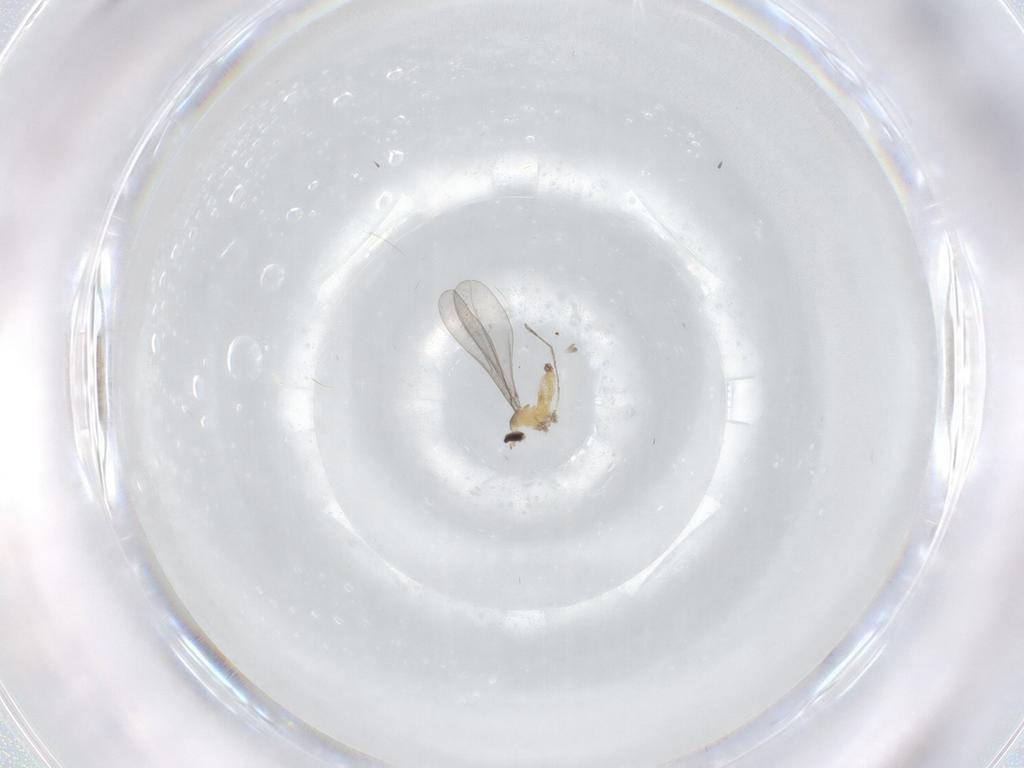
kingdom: Animalia
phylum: Arthropoda
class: Insecta
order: Diptera
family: Cecidomyiidae
